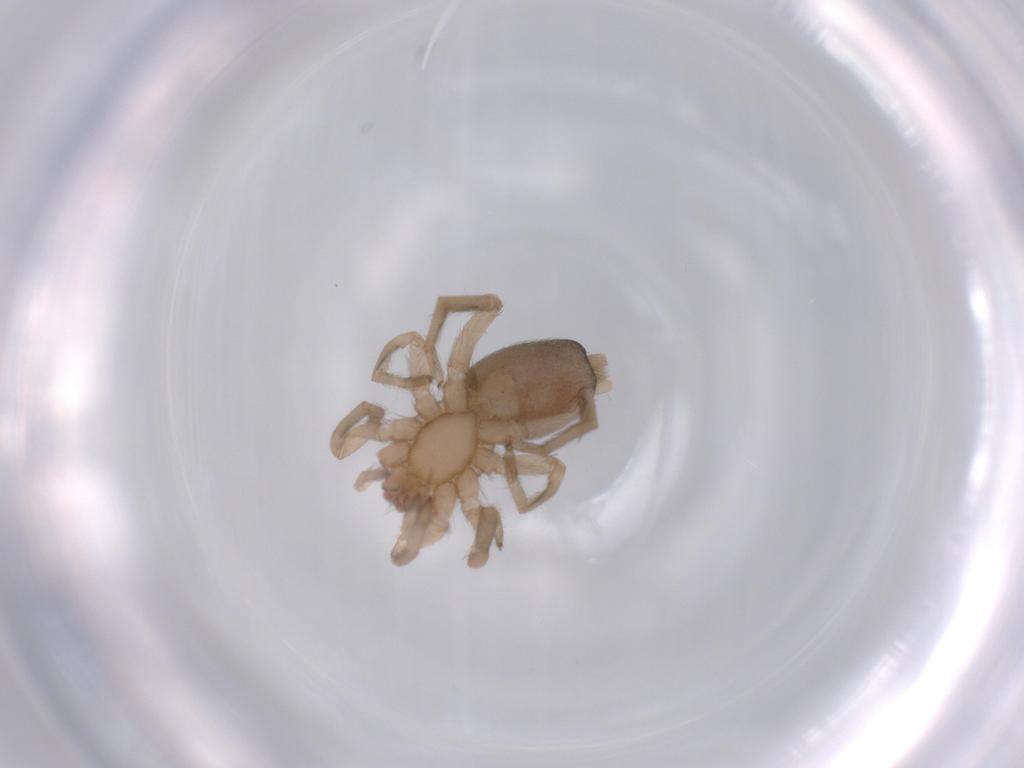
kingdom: Animalia
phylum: Arthropoda
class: Arachnida
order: Araneae
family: Gnaphosidae
